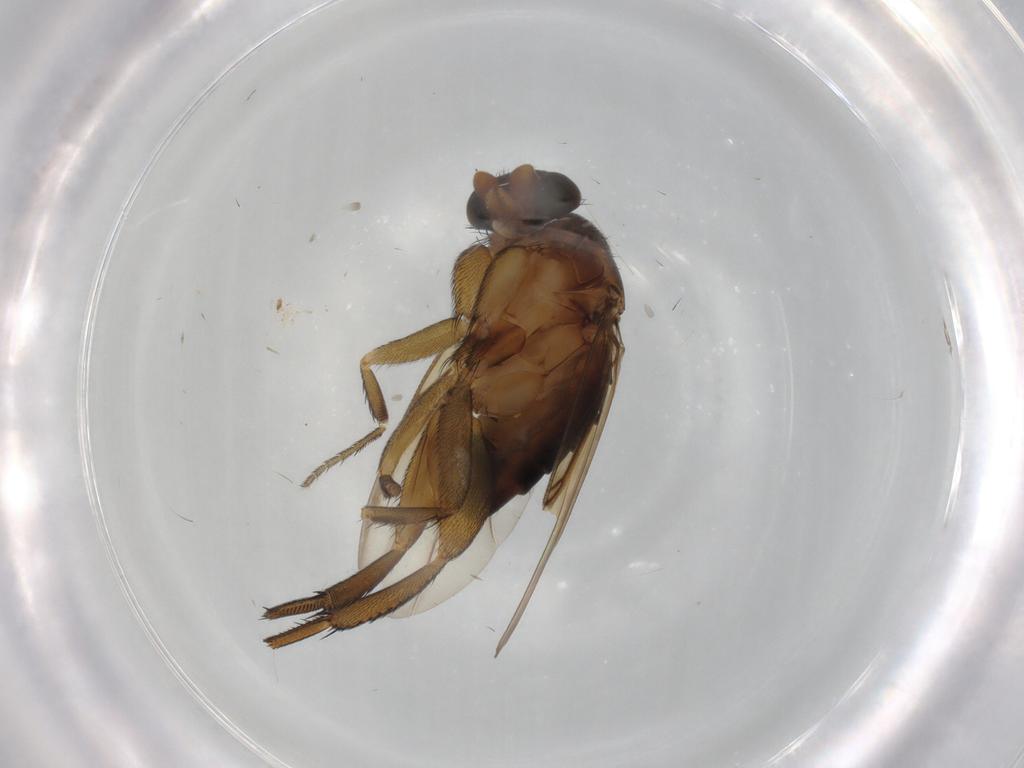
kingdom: Animalia
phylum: Arthropoda
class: Insecta
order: Diptera
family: Phoridae
